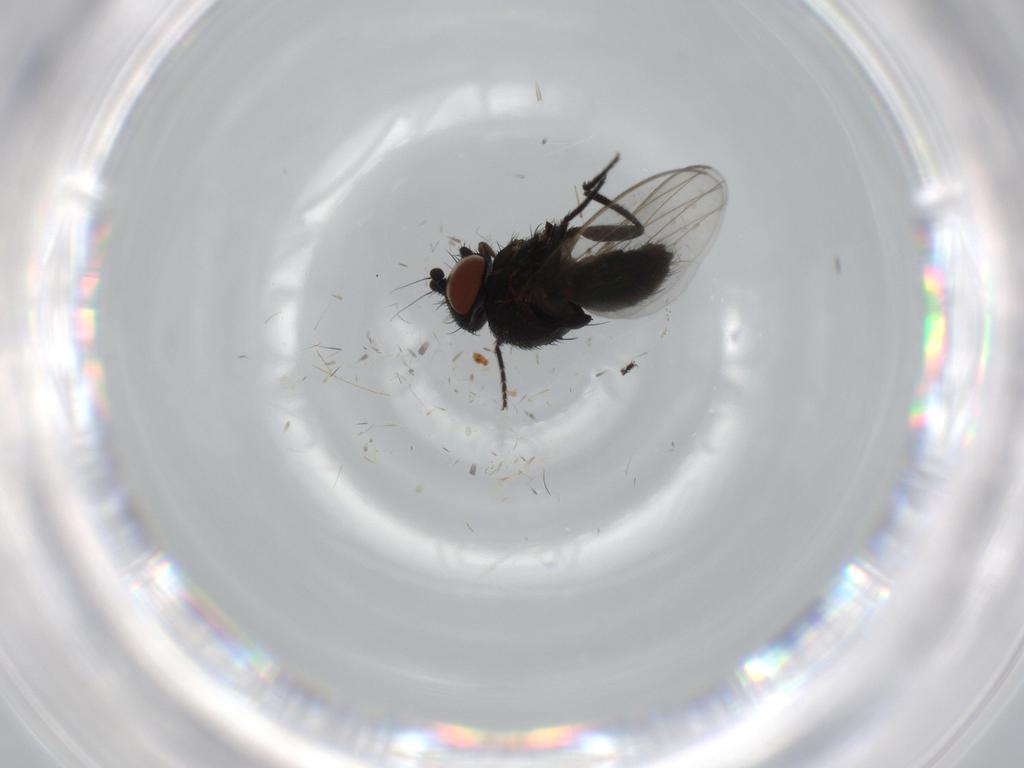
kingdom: Animalia
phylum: Arthropoda
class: Insecta
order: Diptera
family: Milichiidae
